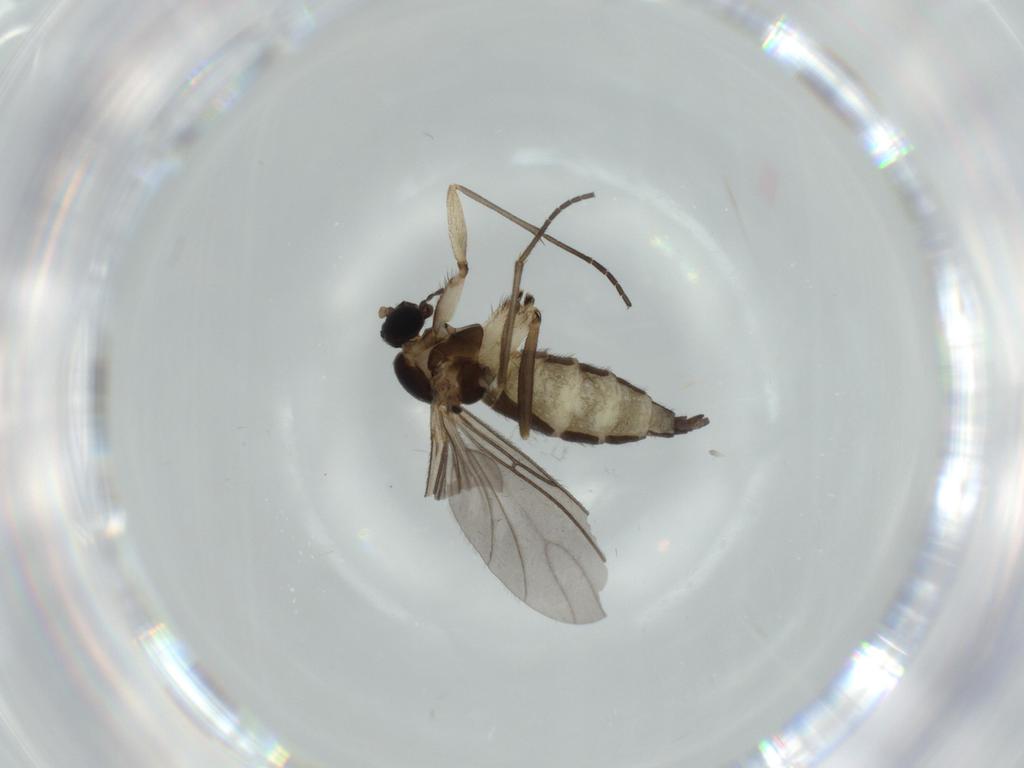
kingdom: Animalia
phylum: Arthropoda
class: Insecta
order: Diptera
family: Sciaridae
